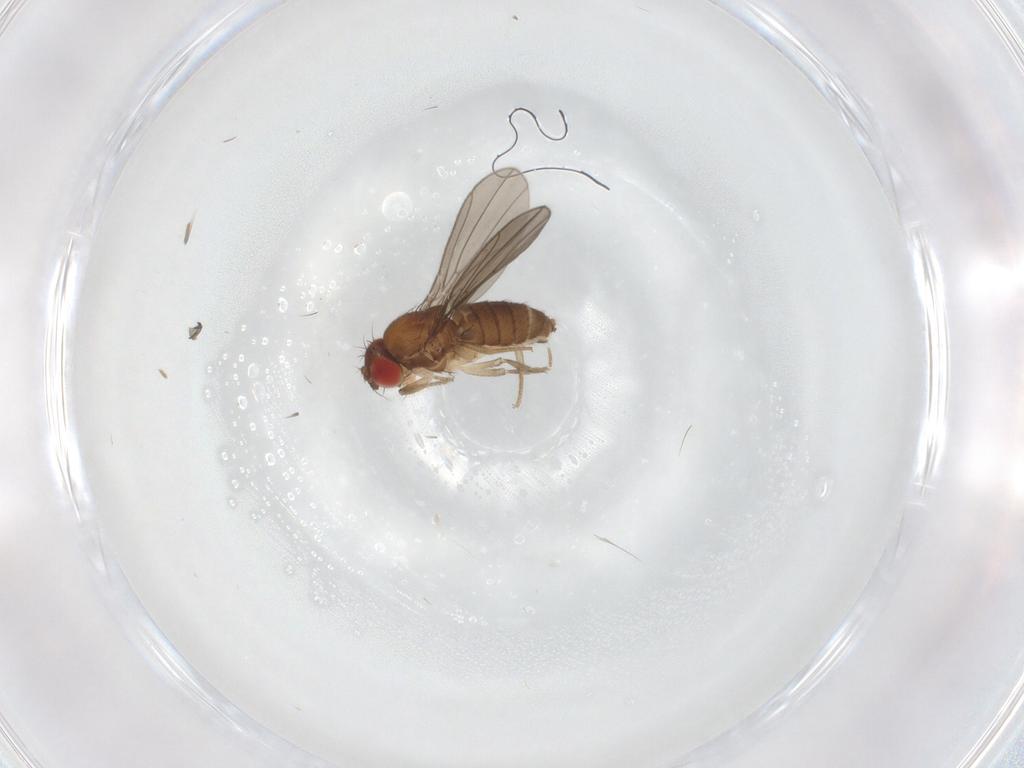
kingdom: Animalia
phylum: Arthropoda
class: Insecta
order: Diptera
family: Drosophilidae
